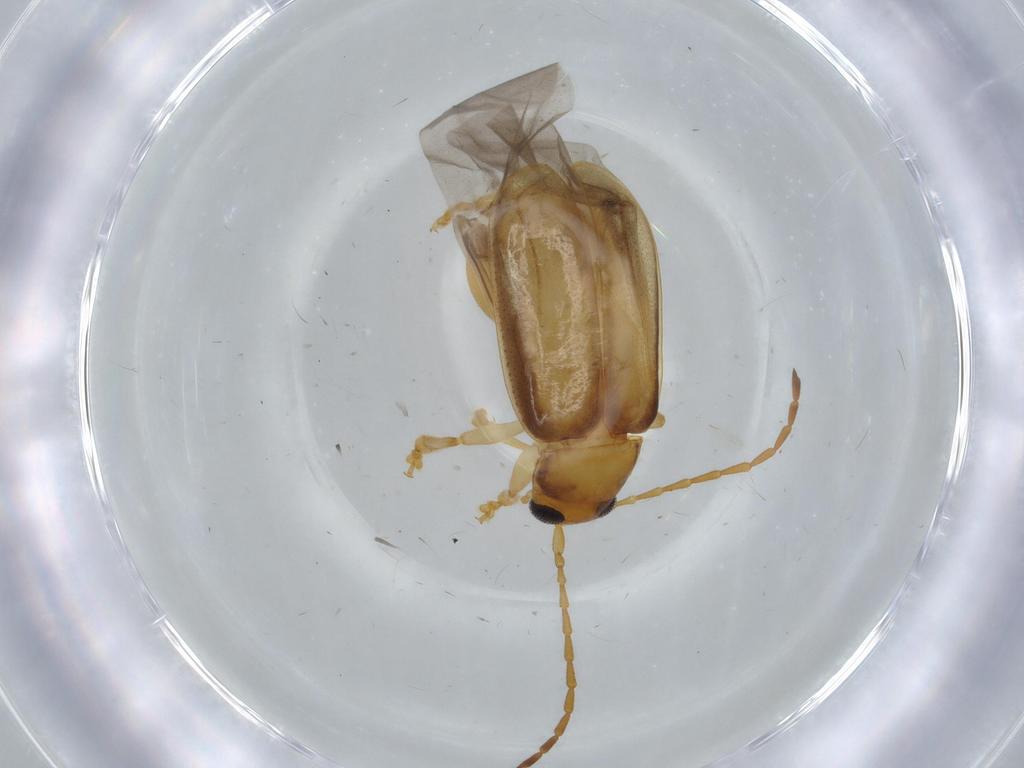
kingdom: Animalia
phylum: Arthropoda
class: Insecta
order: Coleoptera
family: Chrysomelidae
